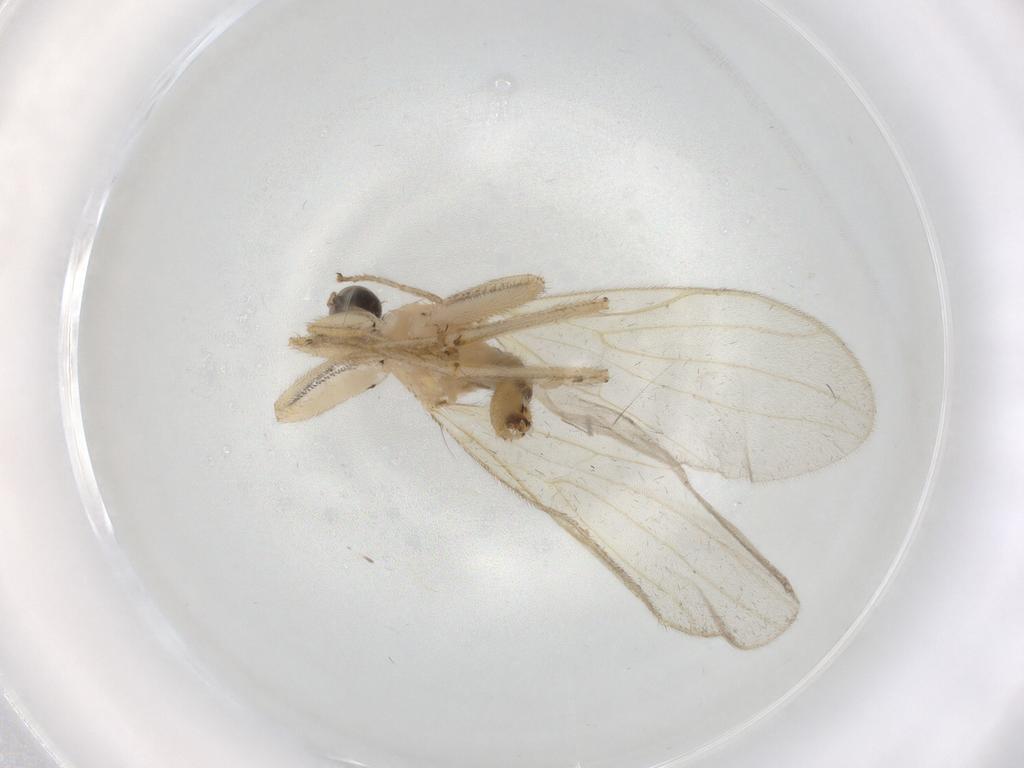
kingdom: Animalia
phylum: Arthropoda
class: Insecta
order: Diptera
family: Hybotidae
